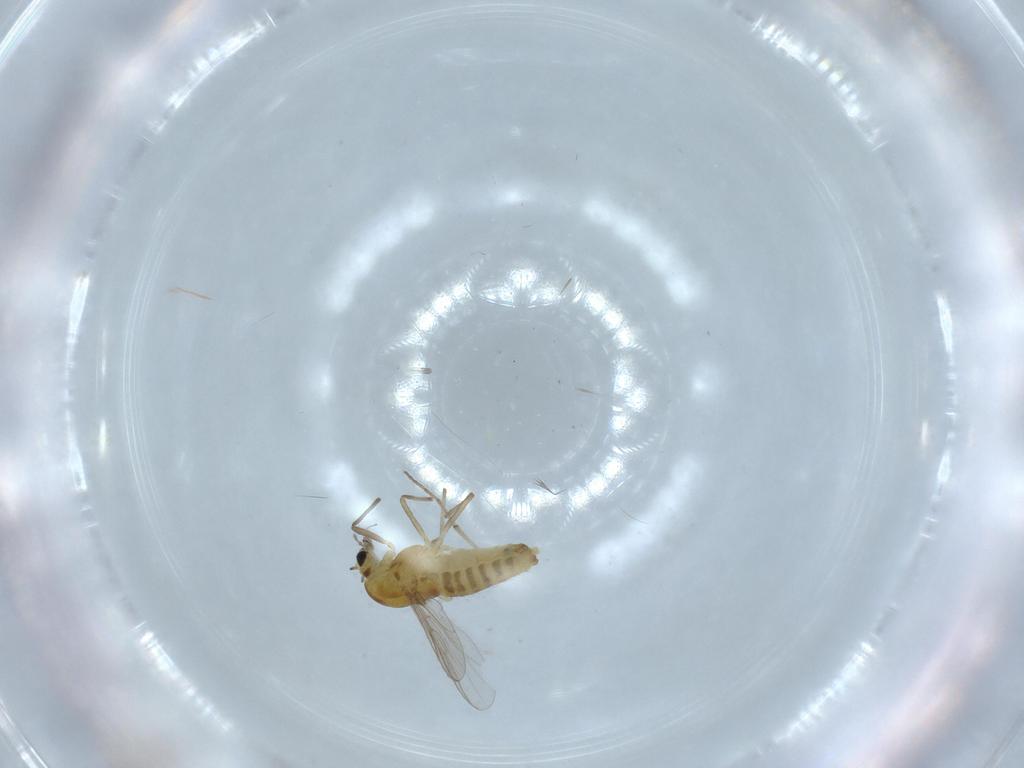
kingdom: Animalia
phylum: Arthropoda
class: Insecta
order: Diptera
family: Chironomidae
